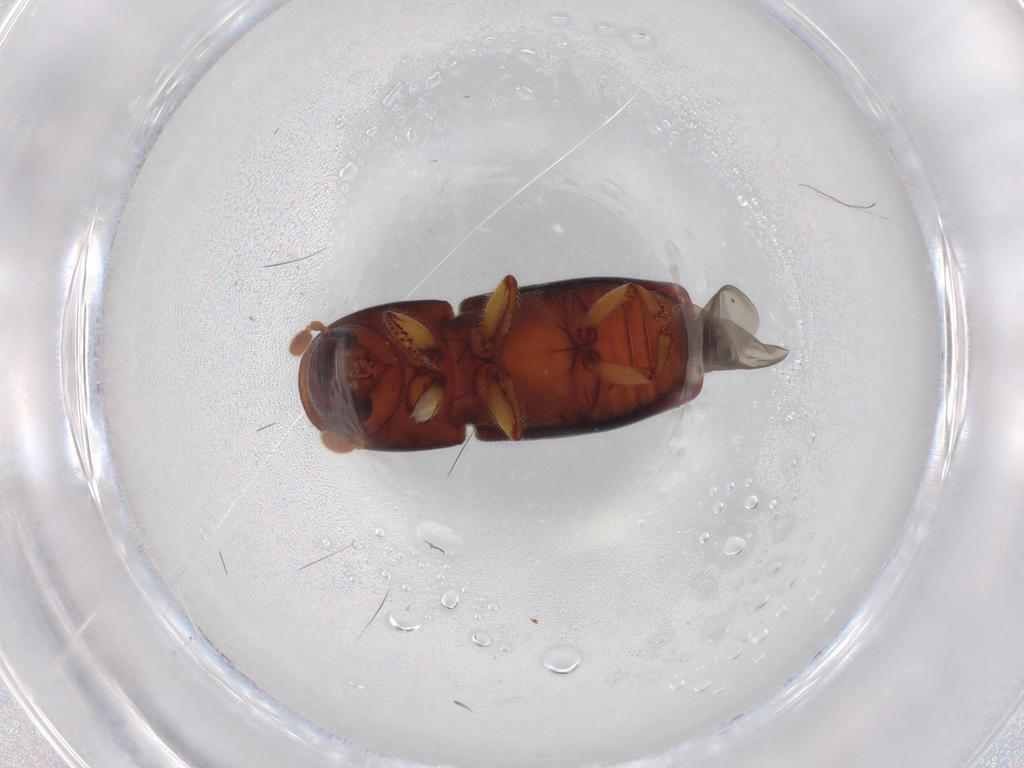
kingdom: Animalia
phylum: Arthropoda
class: Insecta
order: Coleoptera
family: Curculionidae
